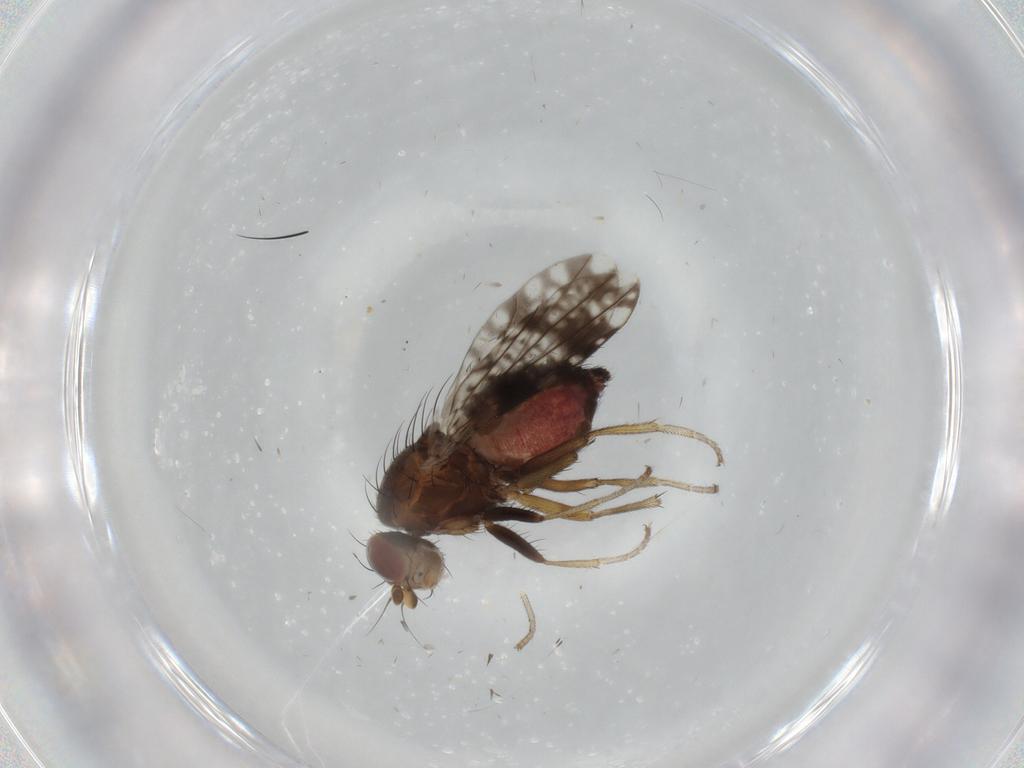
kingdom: Animalia
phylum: Arthropoda
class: Insecta
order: Diptera
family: Tephritidae
